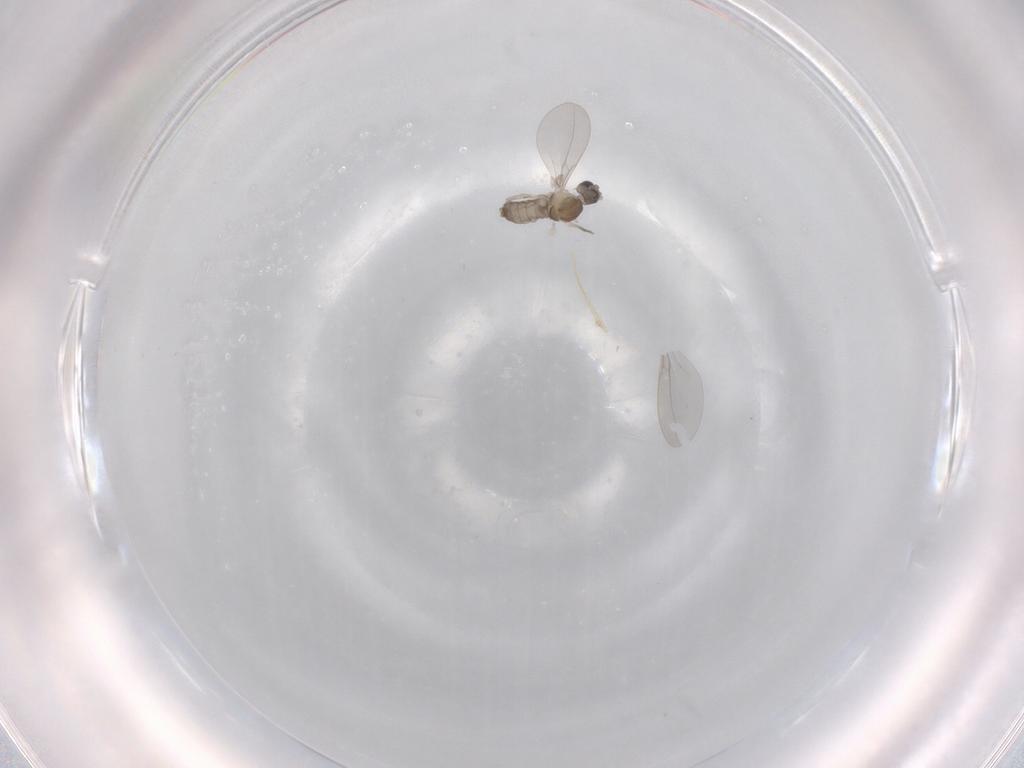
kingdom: Animalia
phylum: Arthropoda
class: Insecta
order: Diptera
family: Cecidomyiidae
